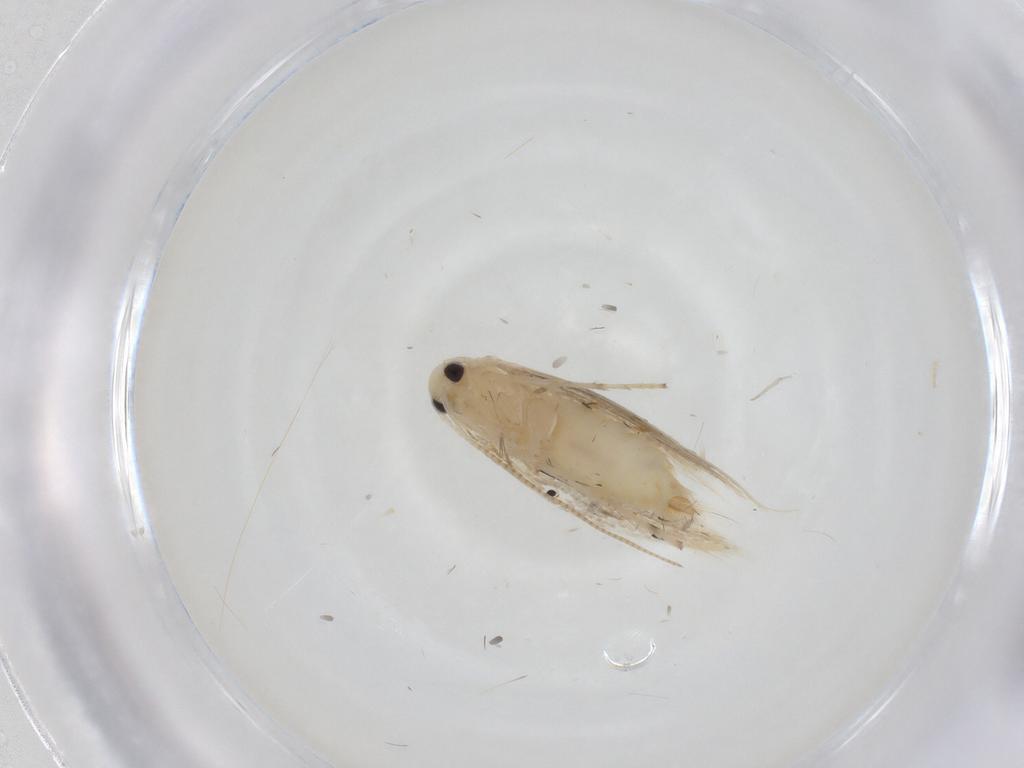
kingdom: Animalia
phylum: Arthropoda
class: Insecta
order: Lepidoptera
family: Gracillariidae
